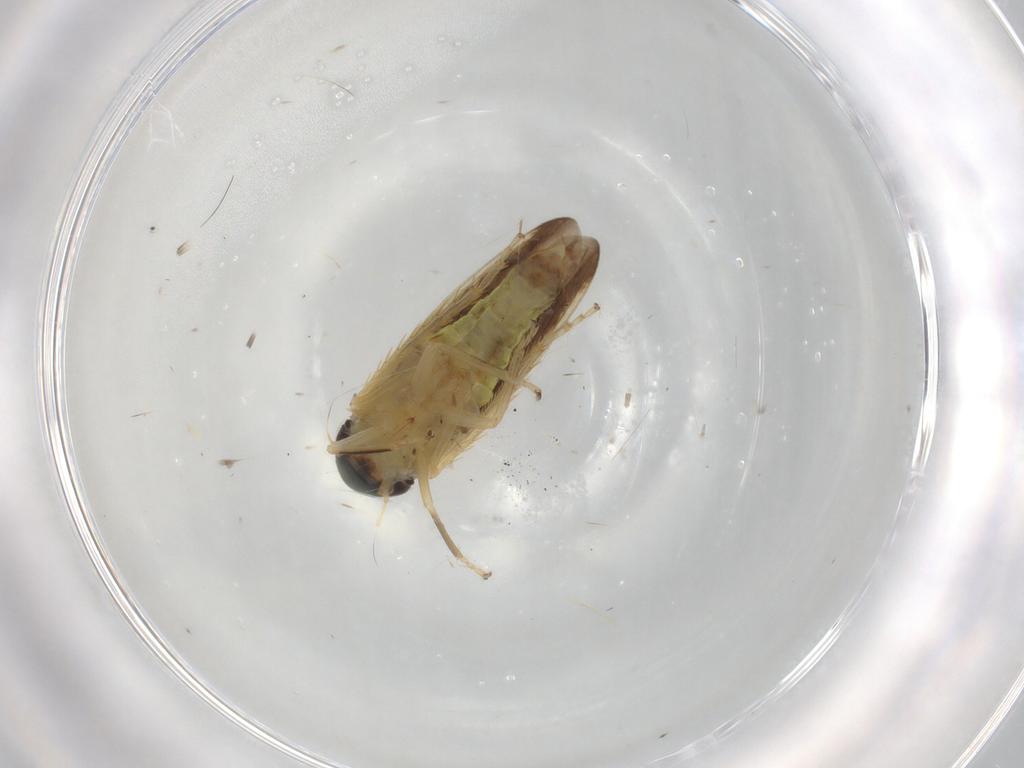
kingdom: Animalia
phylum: Arthropoda
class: Insecta
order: Hemiptera
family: Cicadellidae
